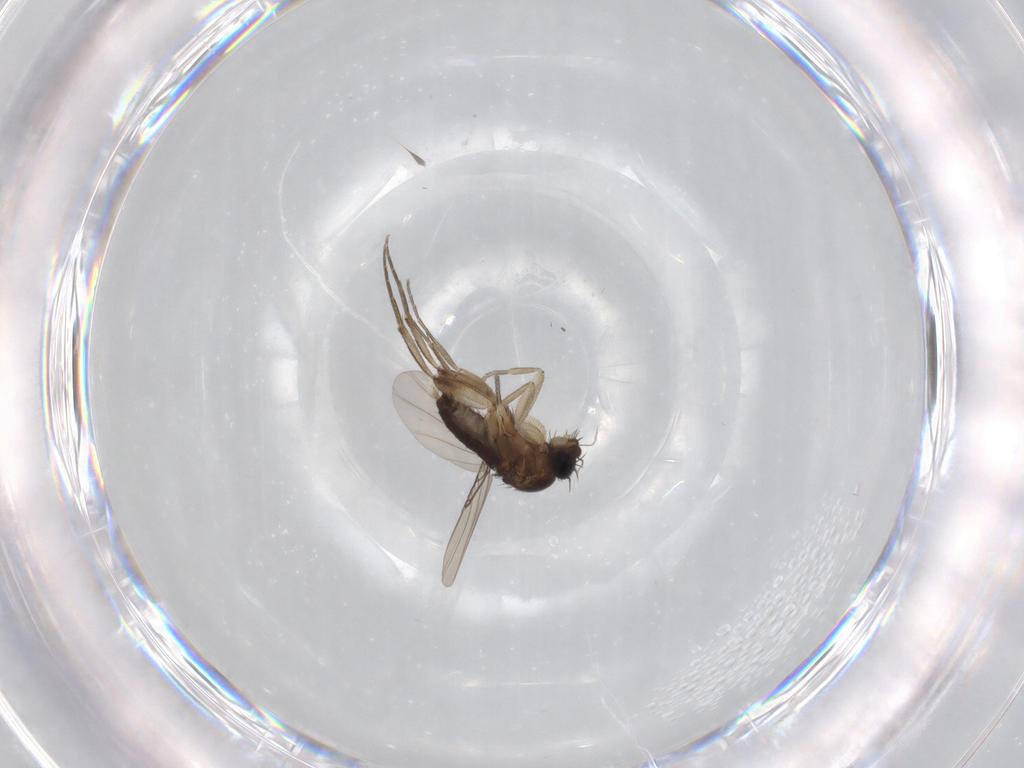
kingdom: Animalia
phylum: Arthropoda
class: Insecta
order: Diptera
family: Phoridae
